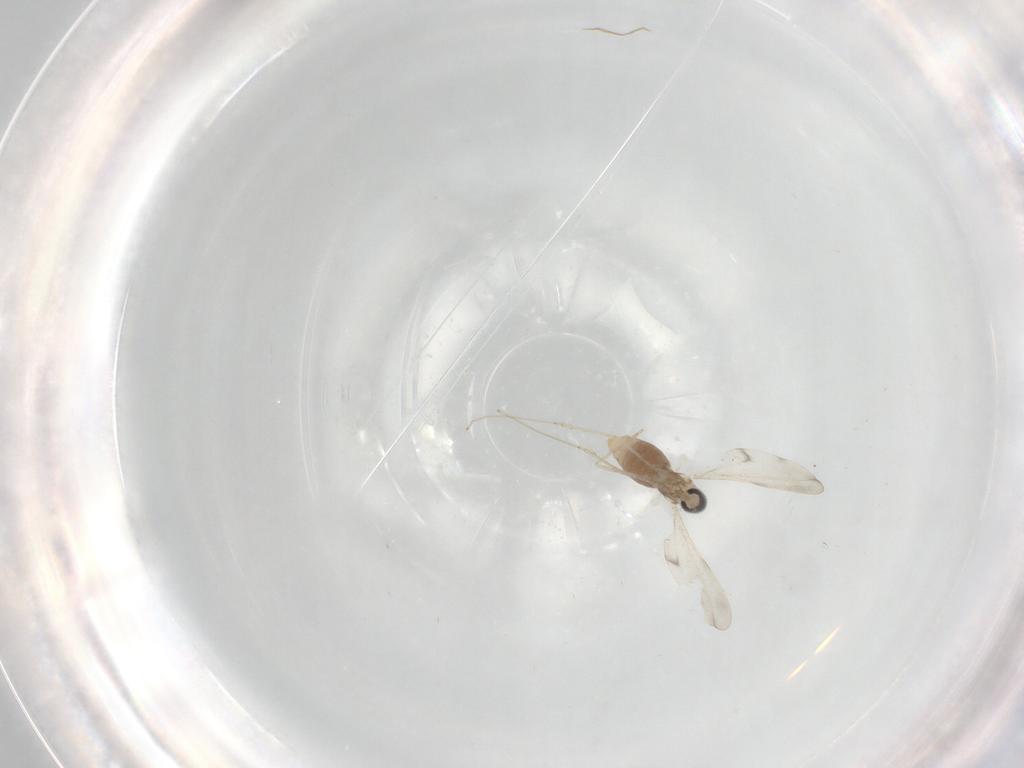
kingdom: Animalia
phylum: Arthropoda
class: Insecta
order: Diptera
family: Cecidomyiidae
